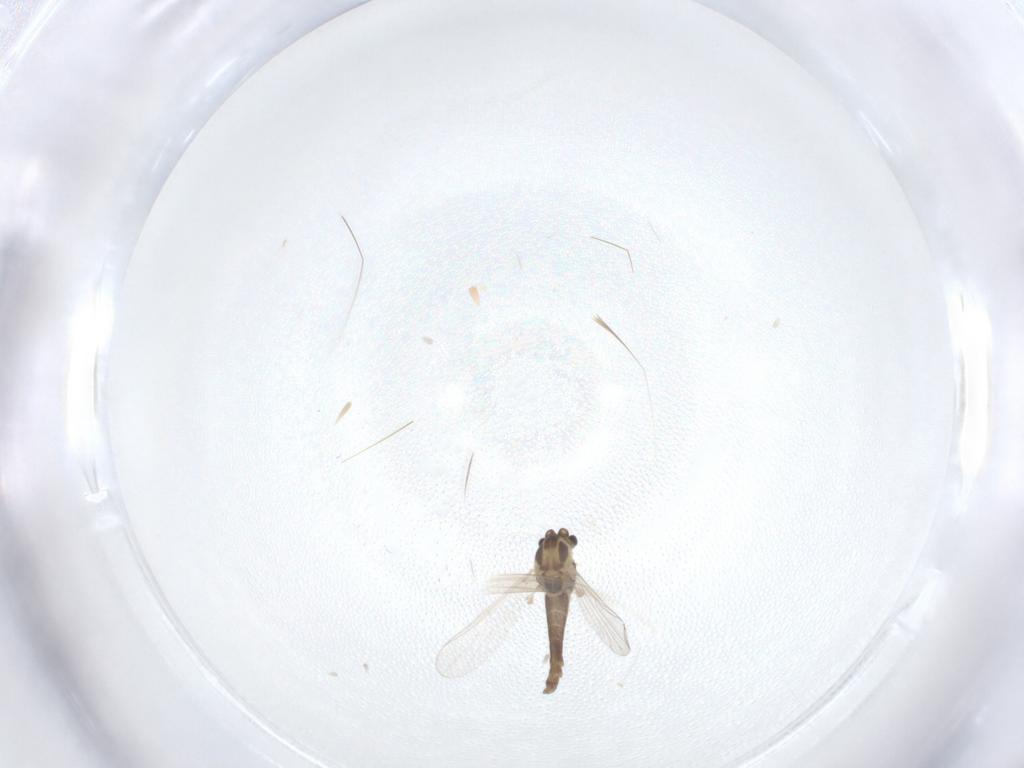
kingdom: Animalia
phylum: Arthropoda
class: Insecta
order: Diptera
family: Chironomidae
